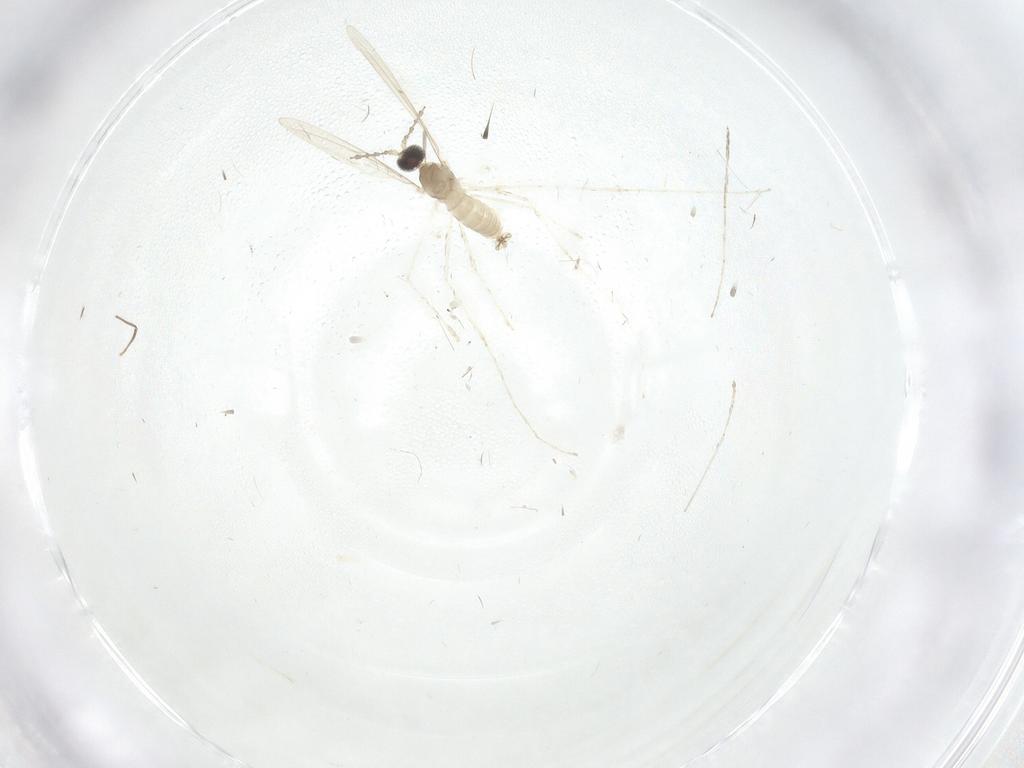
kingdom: Animalia
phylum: Arthropoda
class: Insecta
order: Diptera
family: Cecidomyiidae
